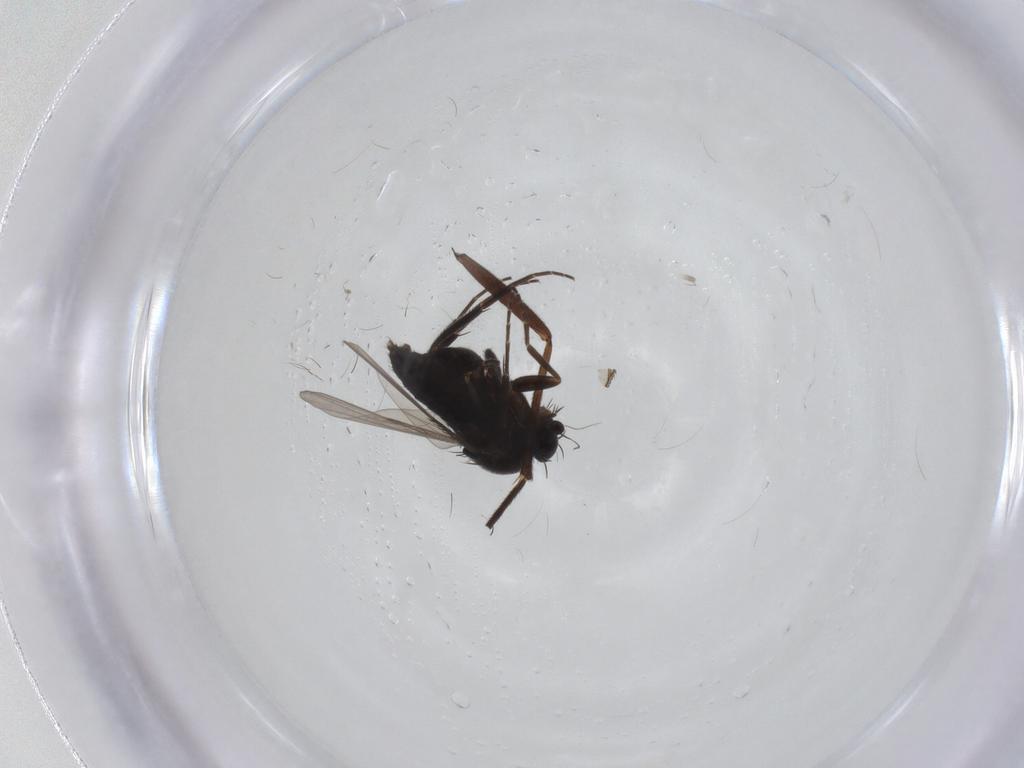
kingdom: Animalia
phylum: Arthropoda
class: Insecta
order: Diptera
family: Phoridae
